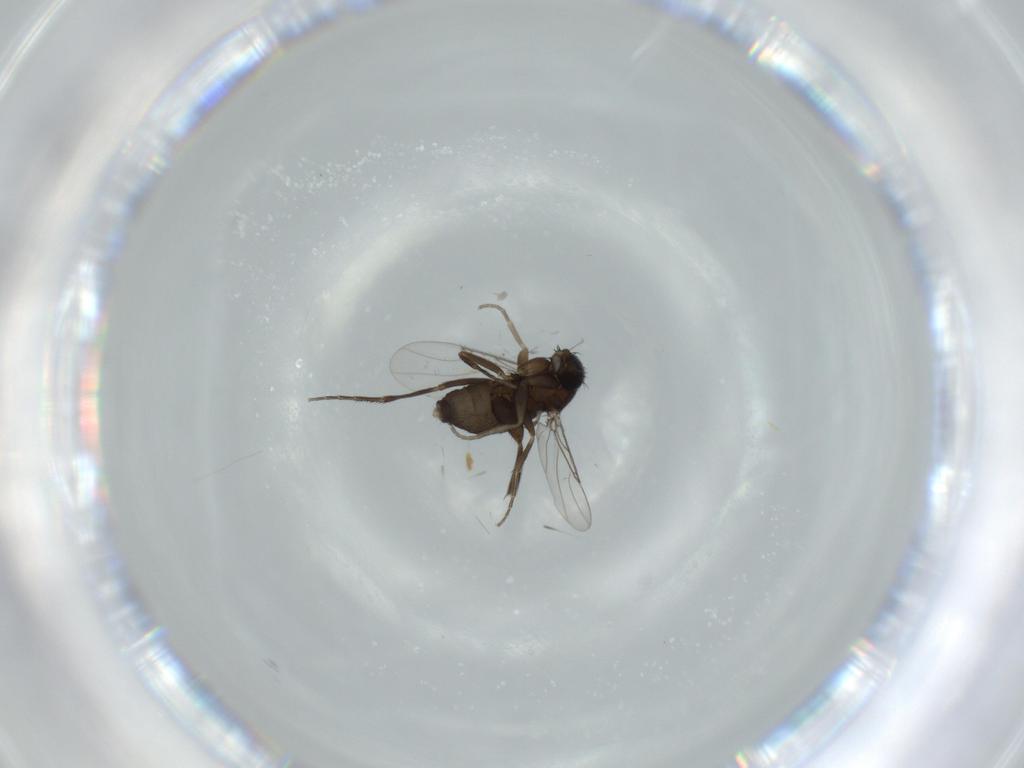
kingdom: Animalia
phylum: Arthropoda
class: Insecta
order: Diptera
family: Phoridae
